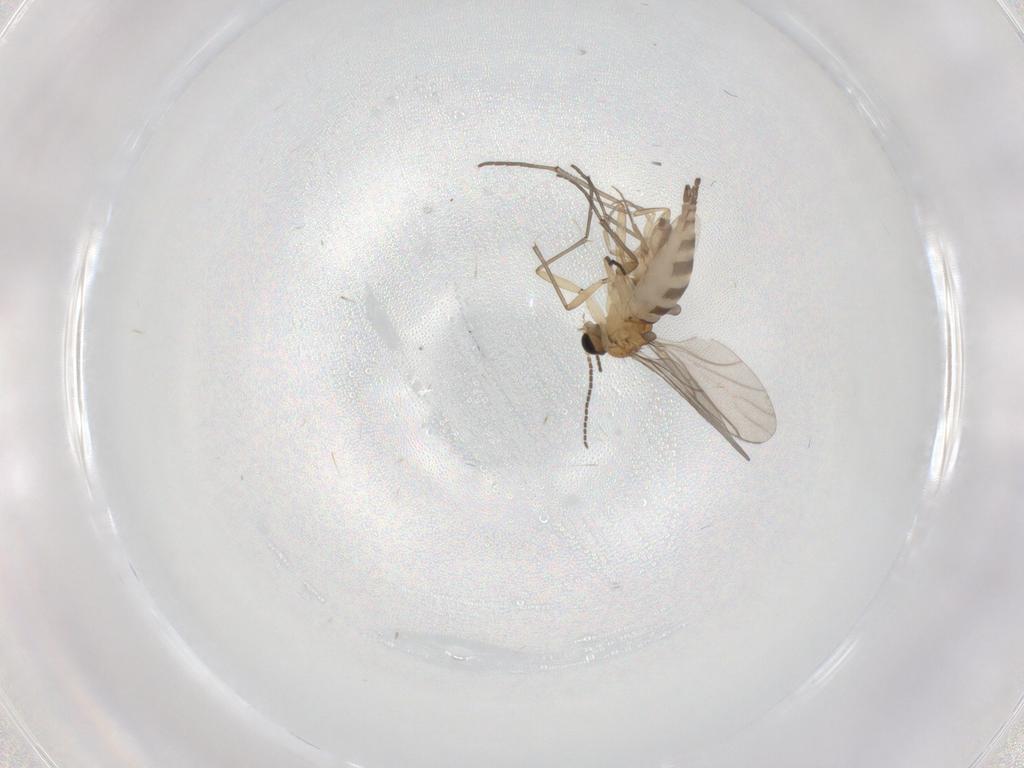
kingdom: Animalia
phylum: Arthropoda
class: Insecta
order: Diptera
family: Phoridae
